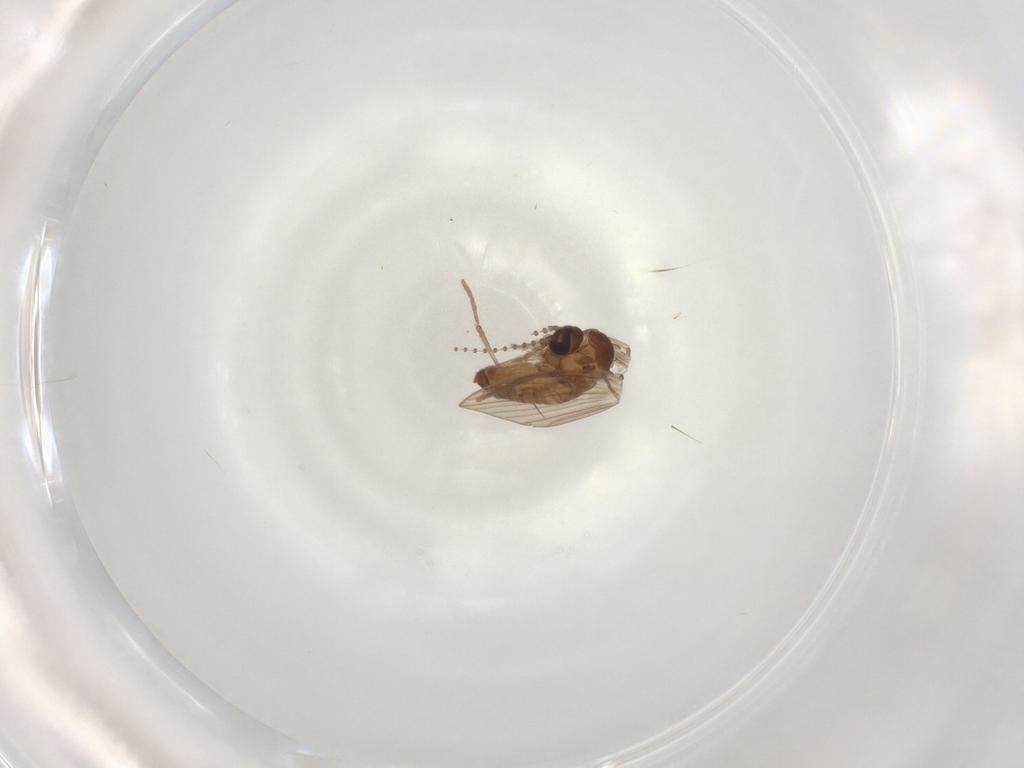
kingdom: Animalia
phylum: Arthropoda
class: Insecta
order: Diptera
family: Psychodidae
